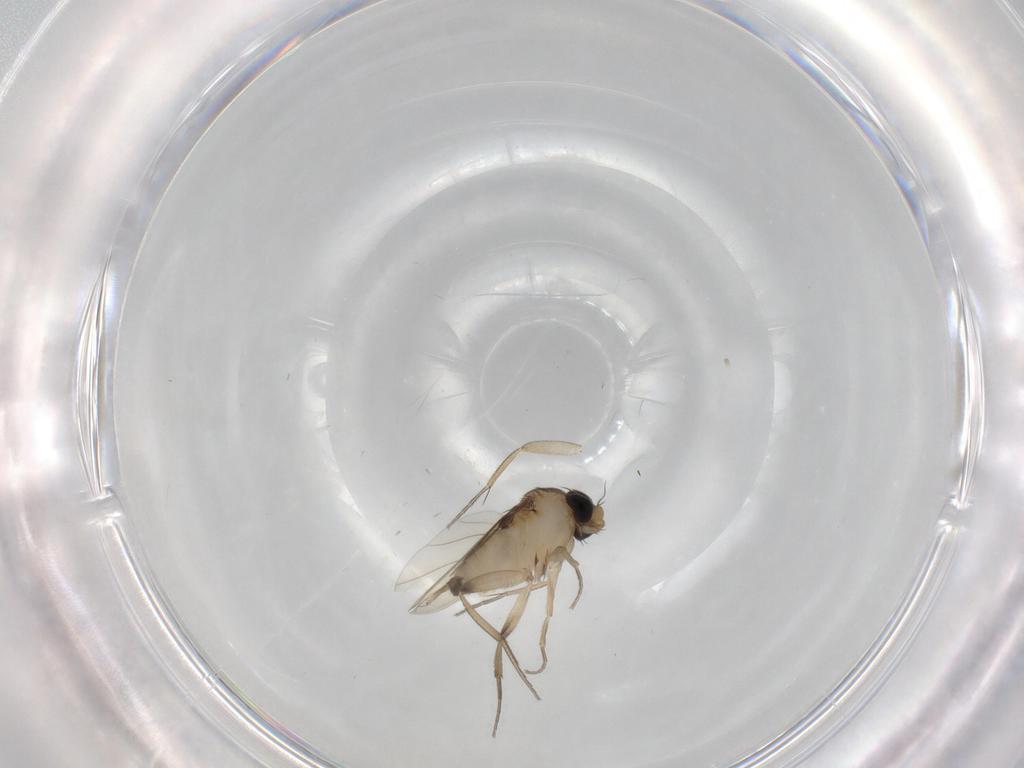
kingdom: Animalia
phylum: Arthropoda
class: Insecta
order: Diptera
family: Phoridae
